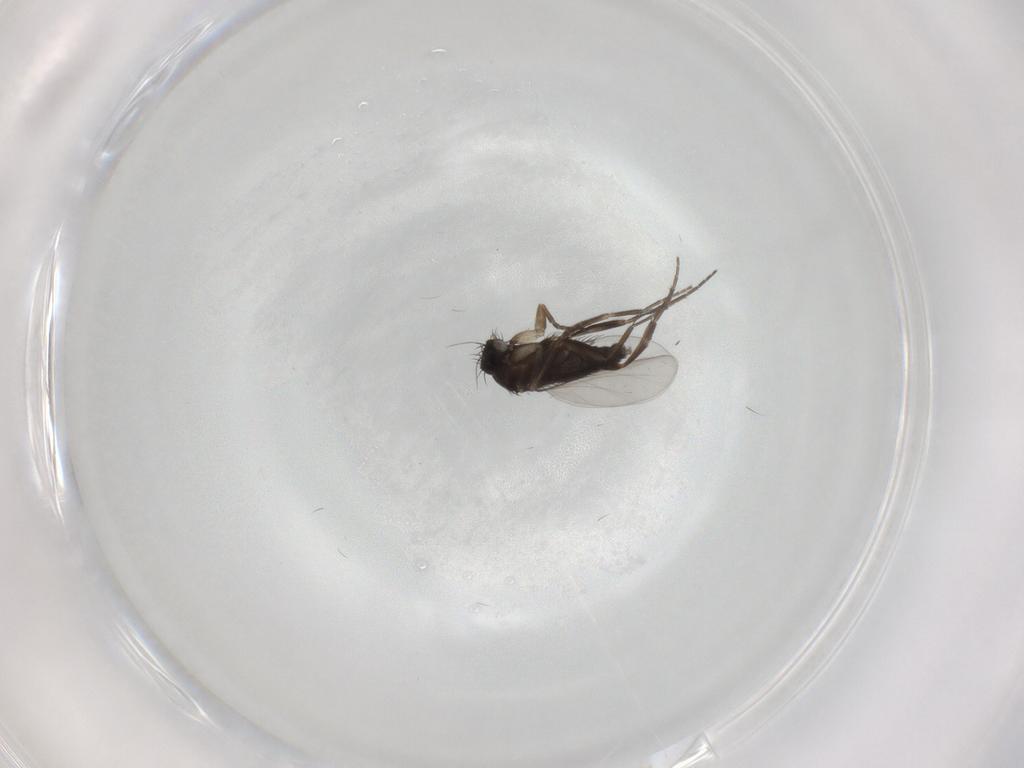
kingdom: Animalia
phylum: Arthropoda
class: Insecta
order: Diptera
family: Phoridae
